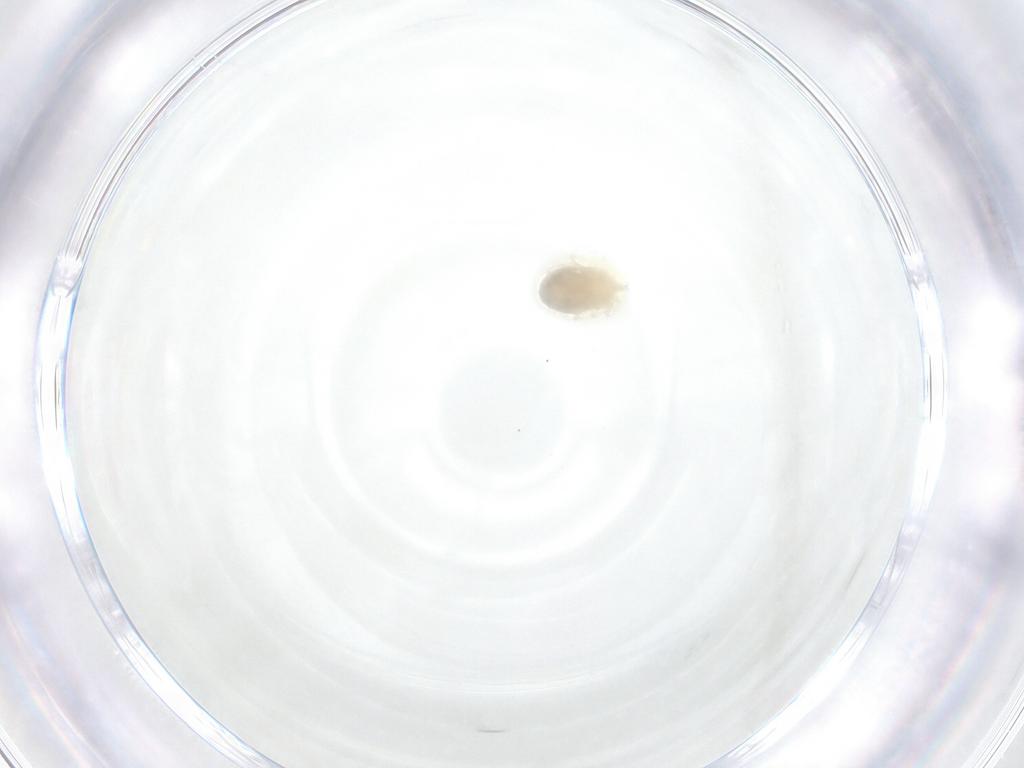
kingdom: Animalia
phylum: Arthropoda
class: Arachnida
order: Trombidiformes
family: Anystidae
